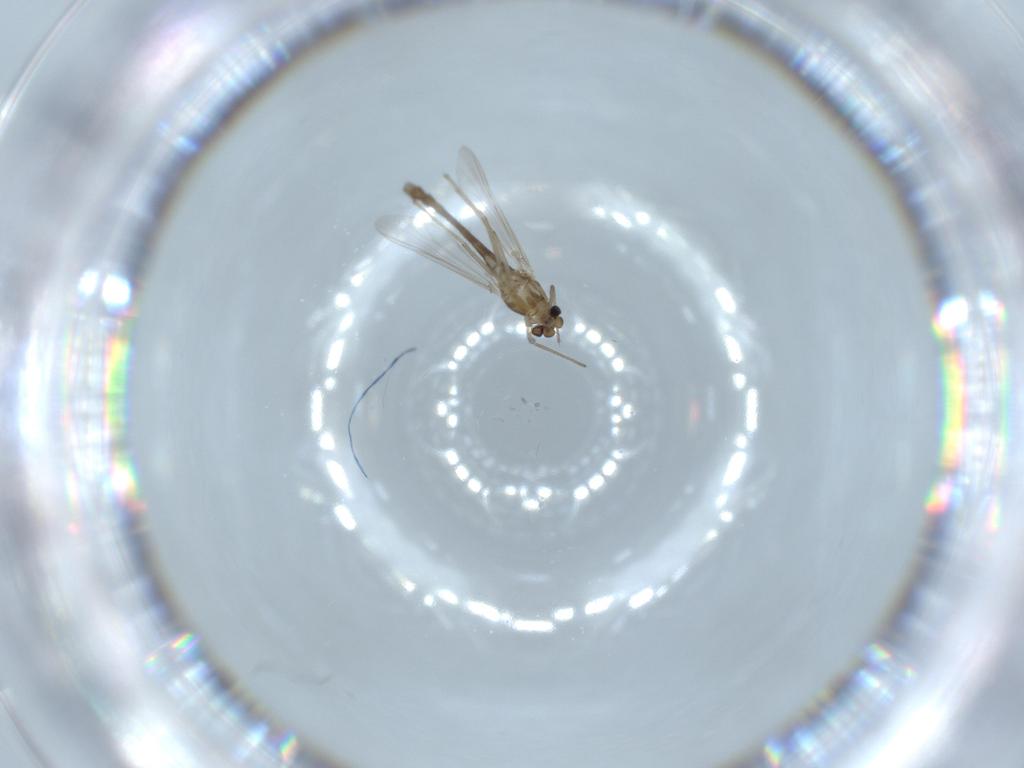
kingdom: Animalia
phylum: Arthropoda
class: Insecta
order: Diptera
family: Chironomidae
